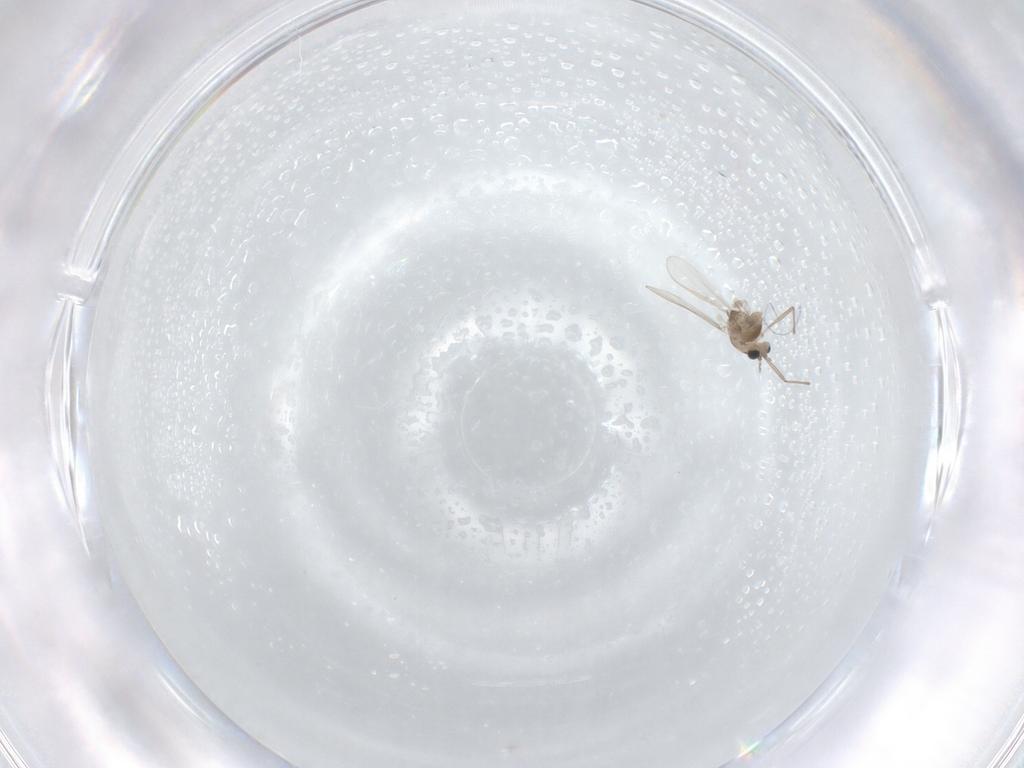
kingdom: Animalia
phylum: Arthropoda
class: Insecta
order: Diptera
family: Chironomidae
